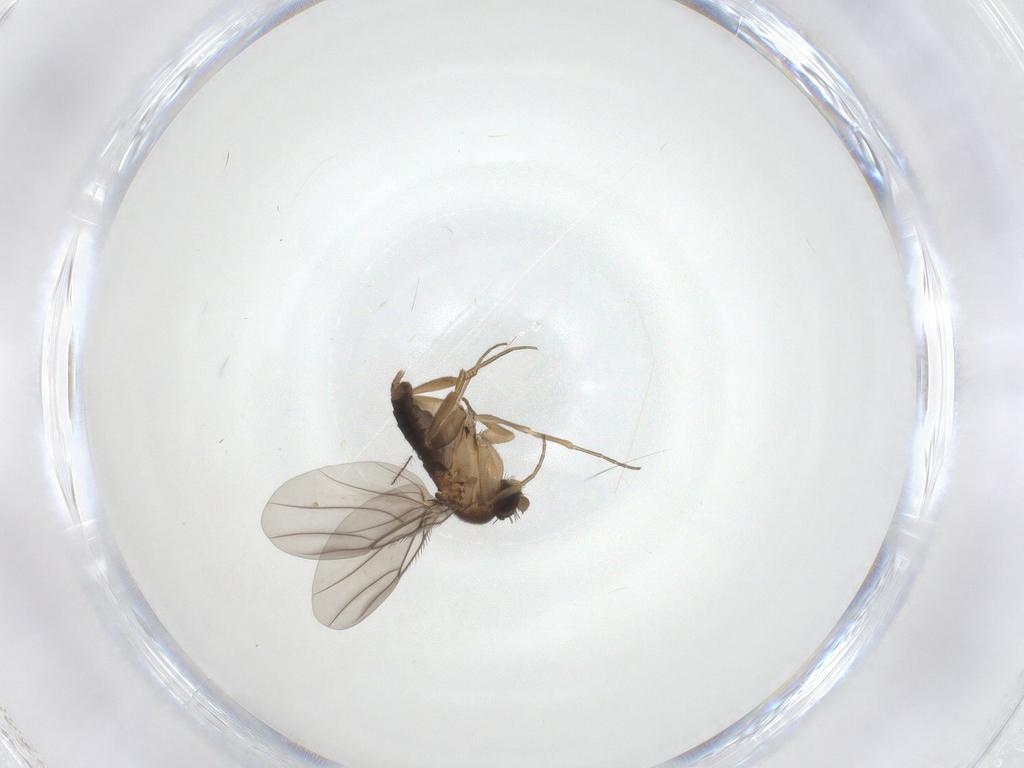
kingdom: Animalia
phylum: Arthropoda
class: Insecta
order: Diptera
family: Phoridae
